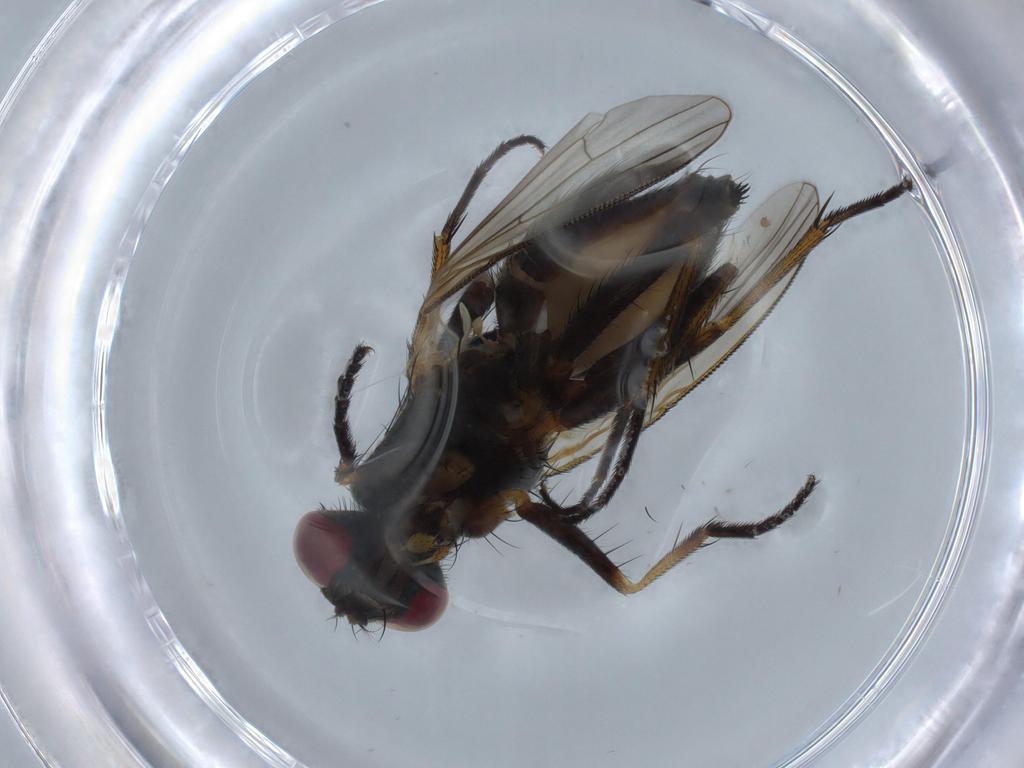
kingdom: Animalia
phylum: Arthropoda
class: Insecta
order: Diptera
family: Muscidae
